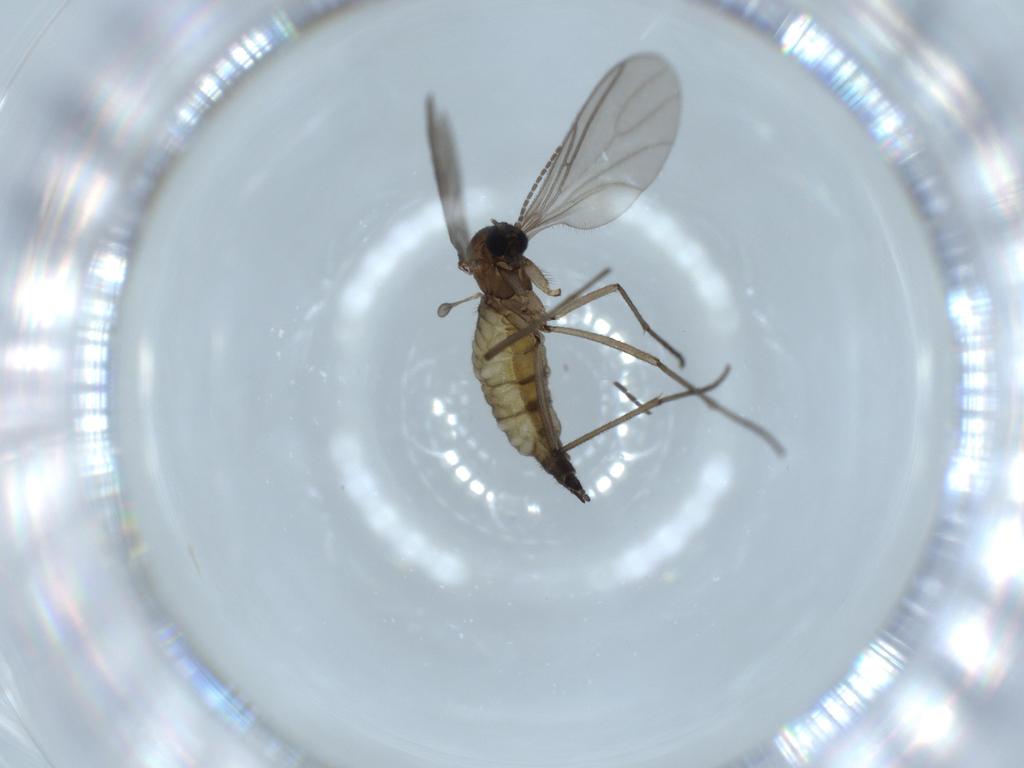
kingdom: Animalia
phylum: Arthropoda
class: Insecta
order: Diptera
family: Sciaridae
